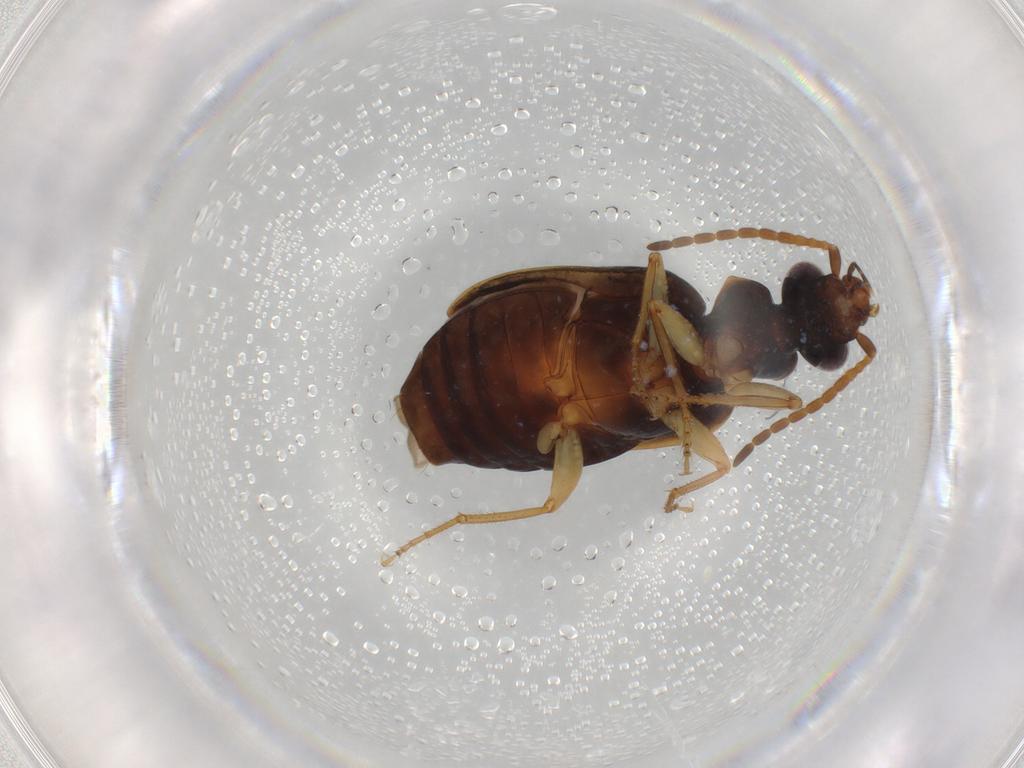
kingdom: Animalia
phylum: Arthropoda
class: Insecta
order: Coleoptera
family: Carabidae
